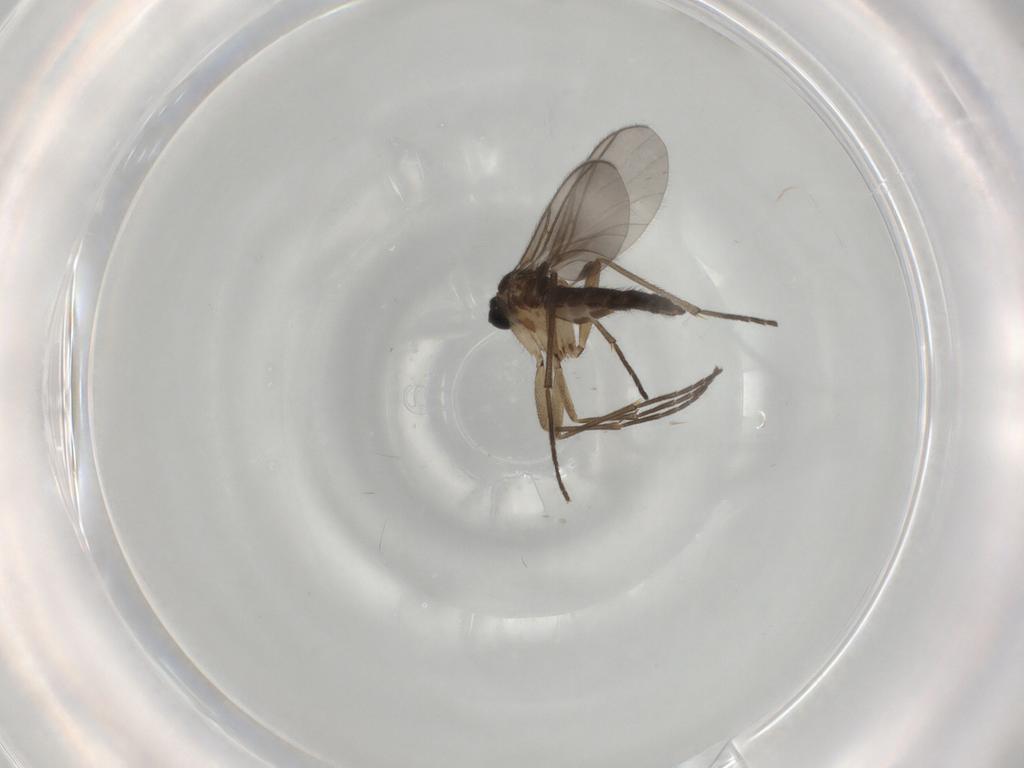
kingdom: Animalia
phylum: Arthropoda
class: Insecta
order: Diptera
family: Sciaridae
